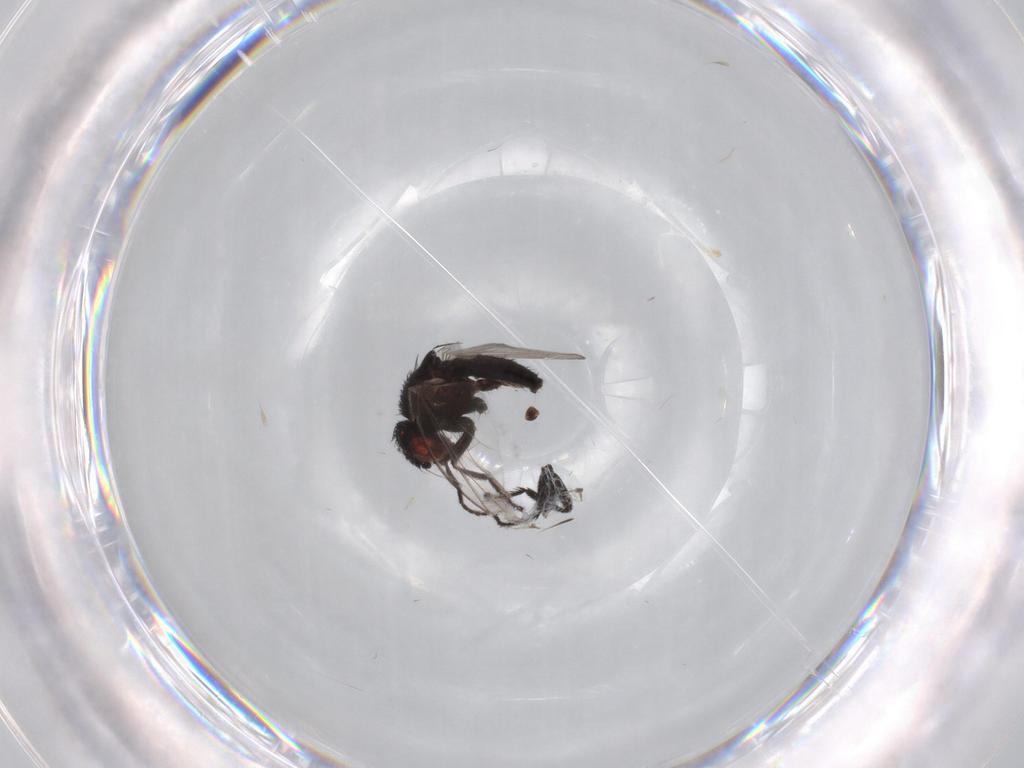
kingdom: Animalia
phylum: Arthropoda
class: Insecta
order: Diptera
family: Milichiidae
